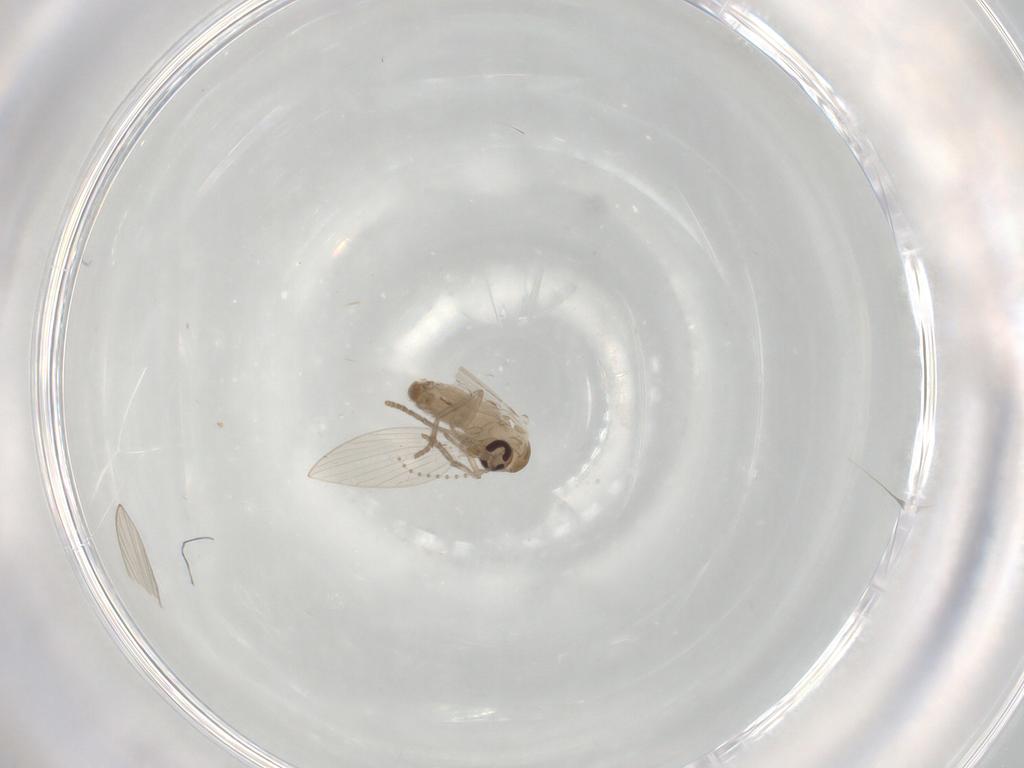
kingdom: Animalia
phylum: Arthropoda
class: Insecta
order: Diptera
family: Psychodidae
